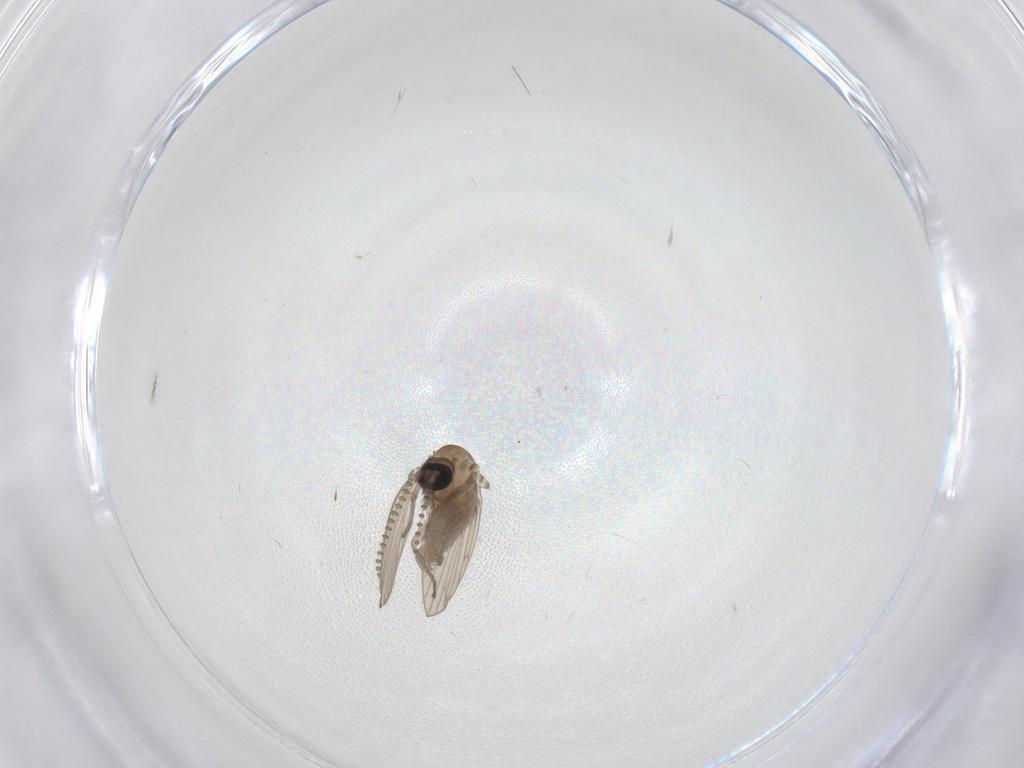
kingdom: Animalia
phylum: Arthropoda
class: Insecta
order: Diptera
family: Psychodidae
